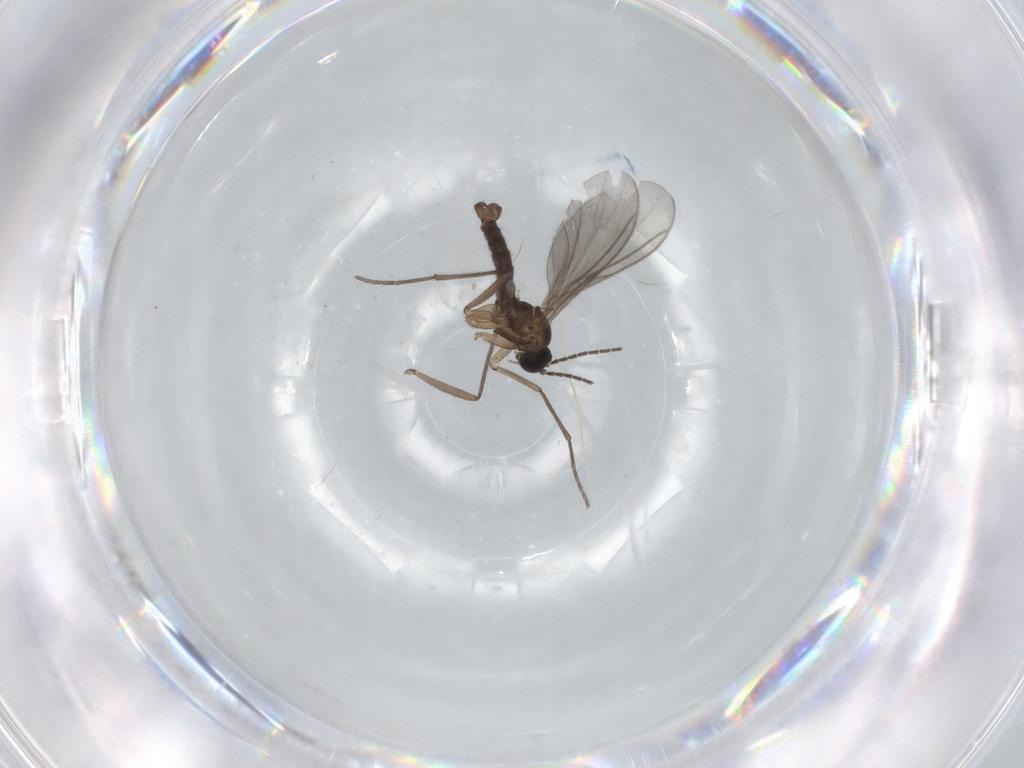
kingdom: Animalia
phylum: Arthropoda
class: Insecta
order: Diptera
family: Sciaridae
